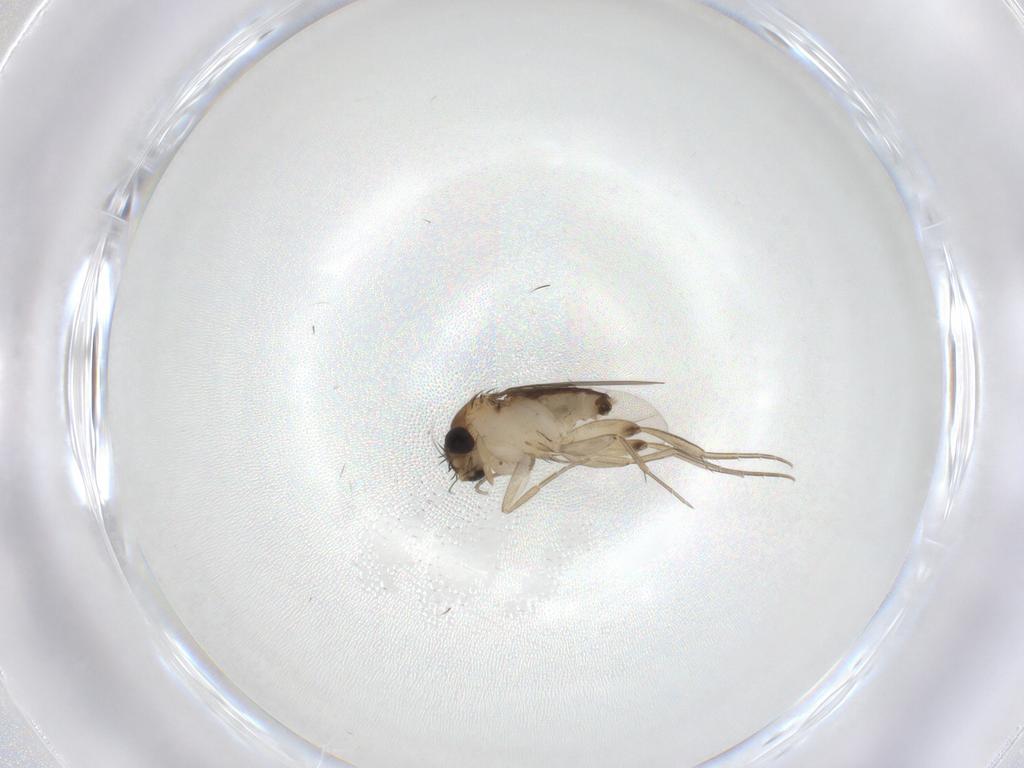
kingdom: Animalia
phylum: Arthropoda
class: Insecta
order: Diptera
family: Phoridae
